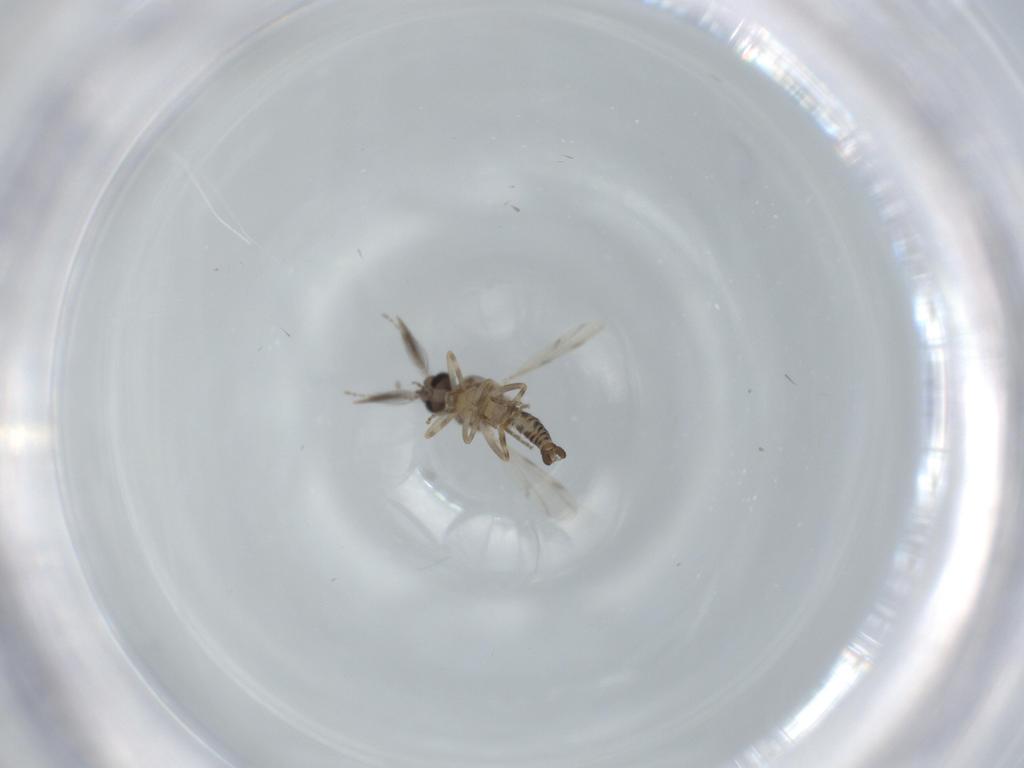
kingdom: Animalia
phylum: Arthropoda
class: Insecta
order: Diptera
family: Ceratopogonidae
